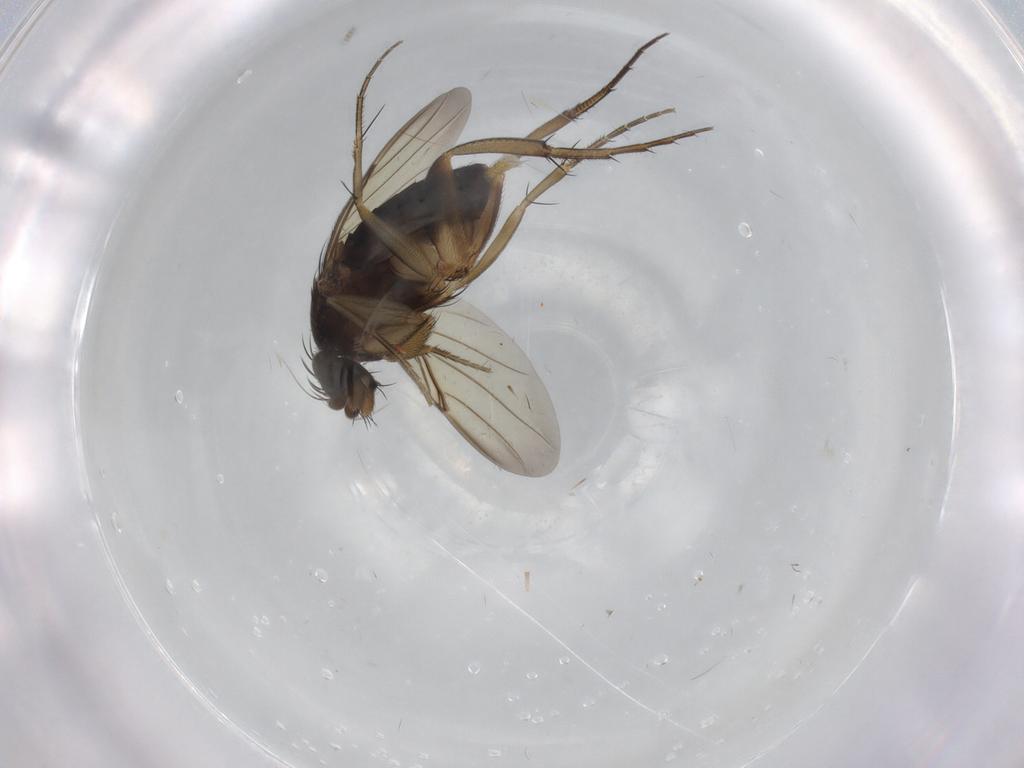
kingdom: Animalia
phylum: Arthropoda
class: Insecta
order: Diptera
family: Phoridae
